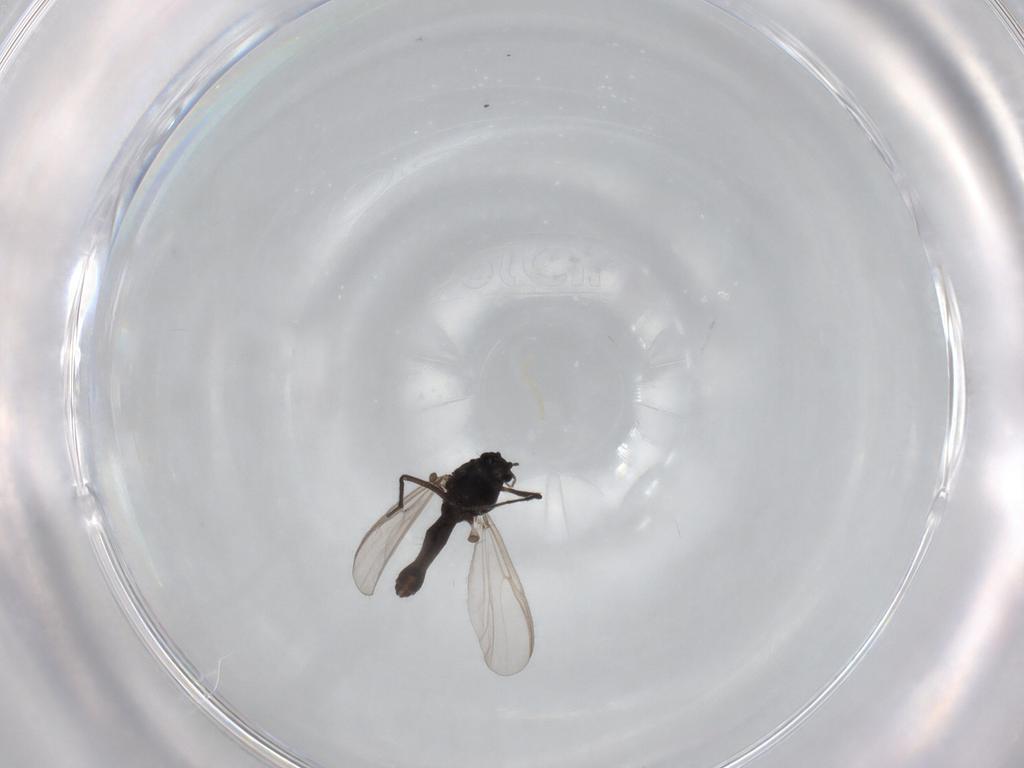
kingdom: Animalia
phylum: Arthropoda
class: Insecta
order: Diptera
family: Chironomidae
